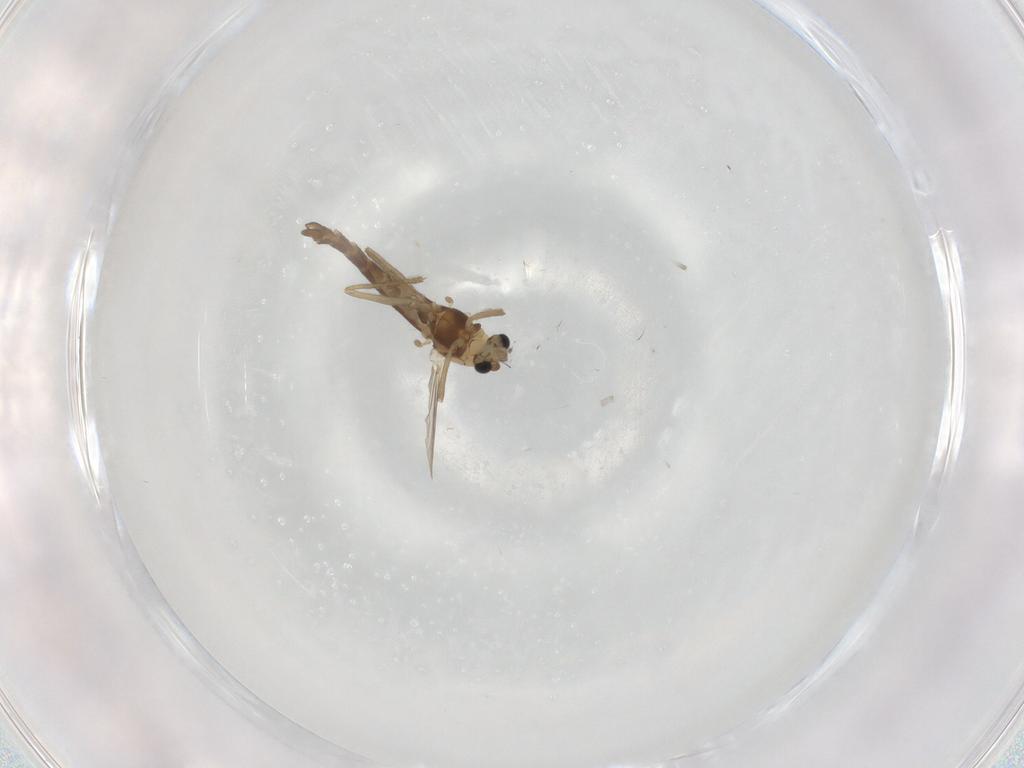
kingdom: Animalia
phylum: Arthropoda
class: Insecta
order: Diptera
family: Chironomidae
